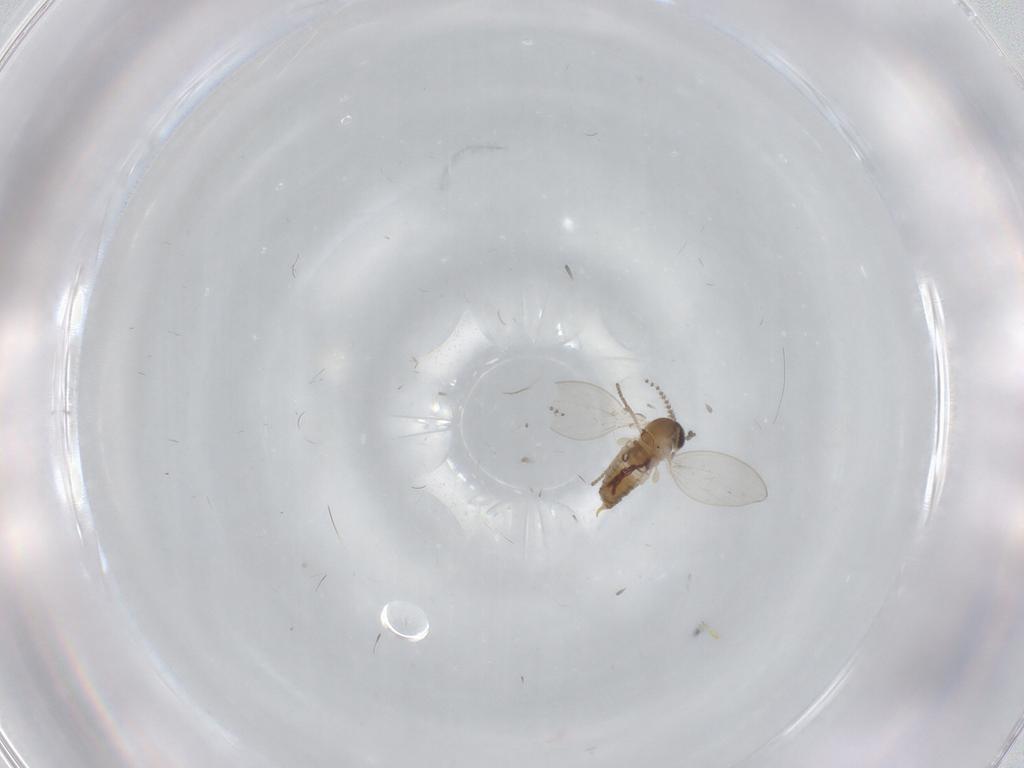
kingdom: Animalia
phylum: Arthropoda
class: Insecta
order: Diptera
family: Psychodidae
